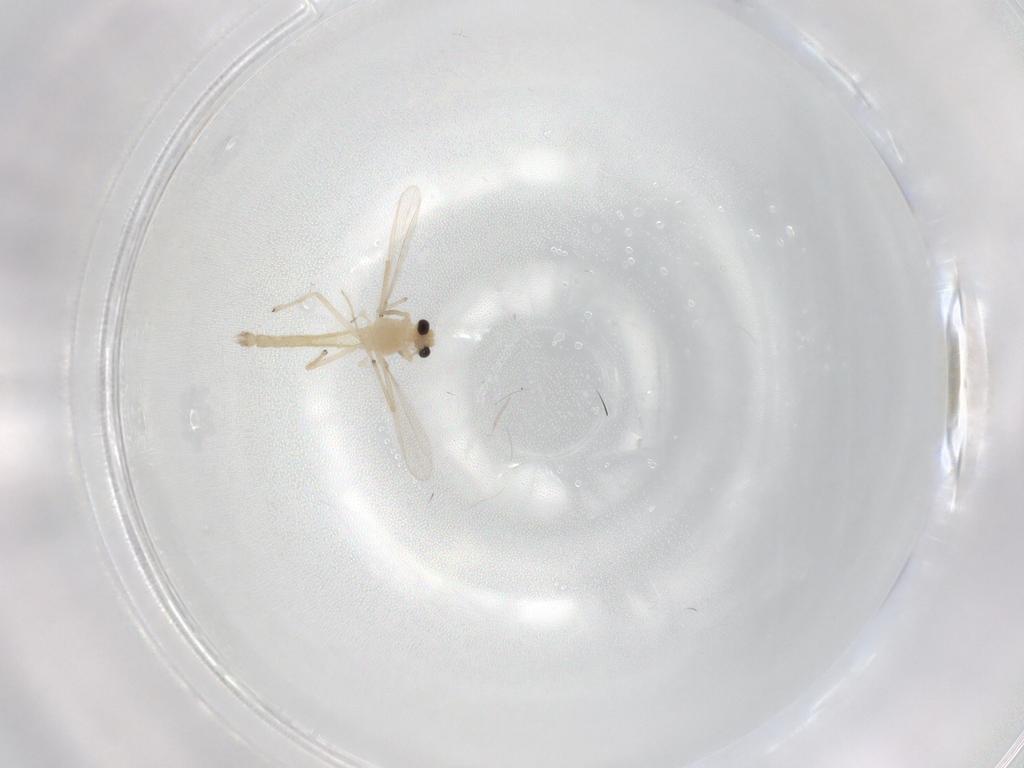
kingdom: Animalia
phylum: Arthropoda
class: Insecta
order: Diptera
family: Chironomidae
